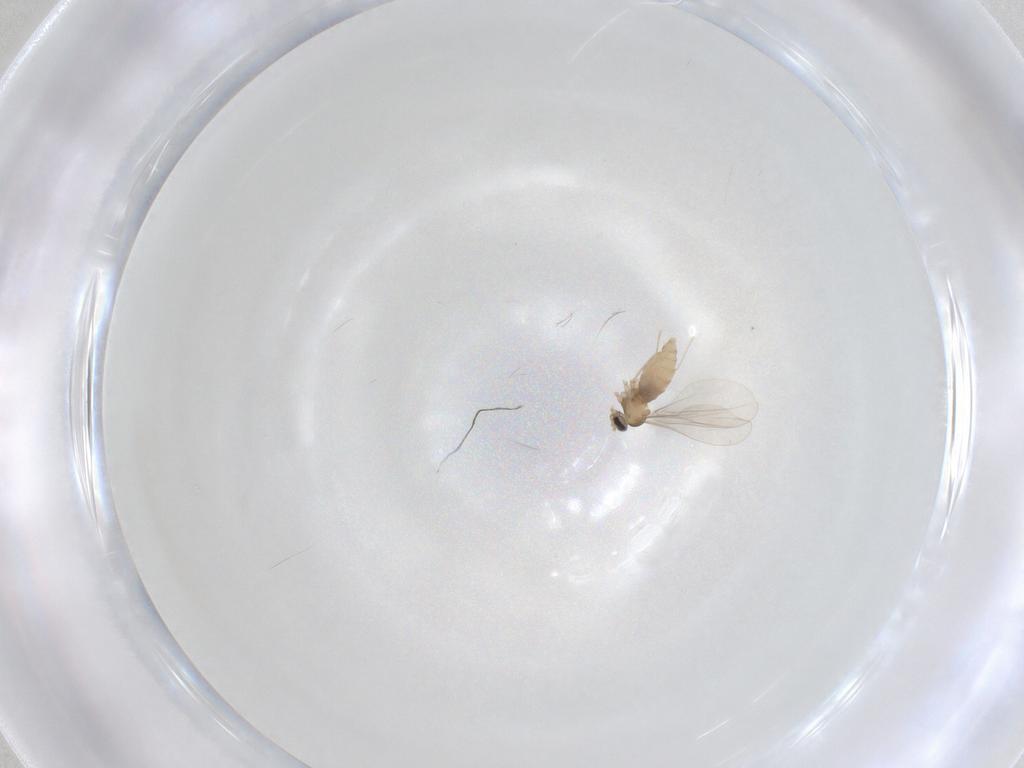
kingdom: Animalia
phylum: Arthropoda
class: Insecta
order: Diptera
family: Cecidomyiidae
